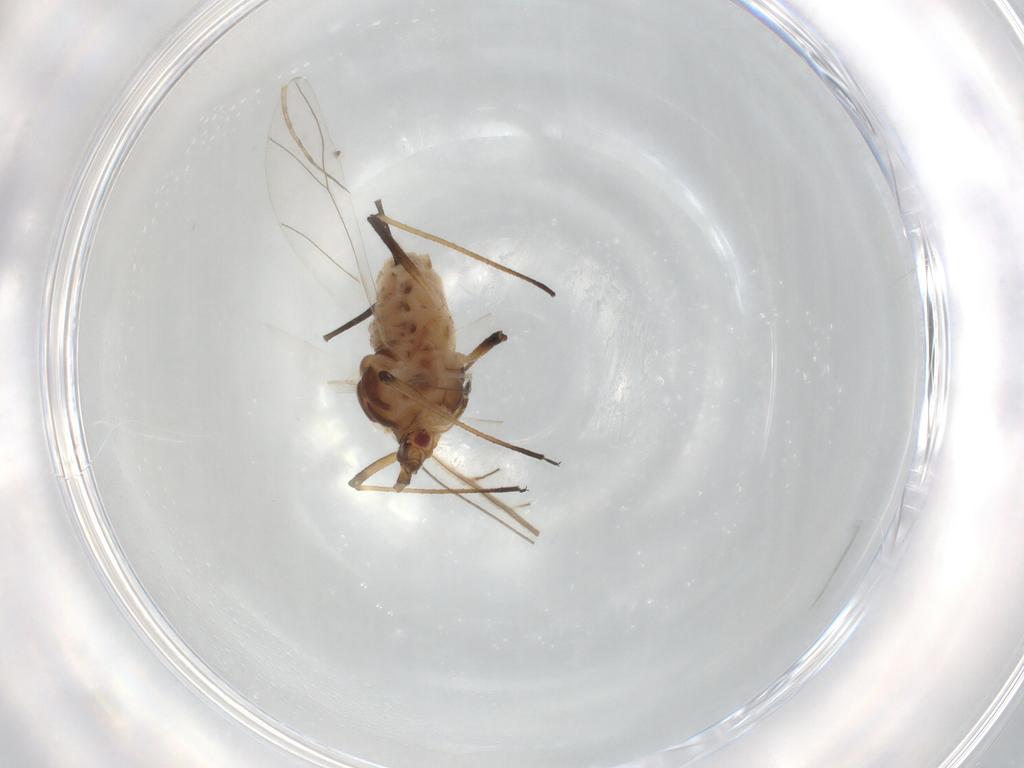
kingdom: Animalia
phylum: Arthropoda
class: Insecta
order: Hemiptera
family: Aphididae
